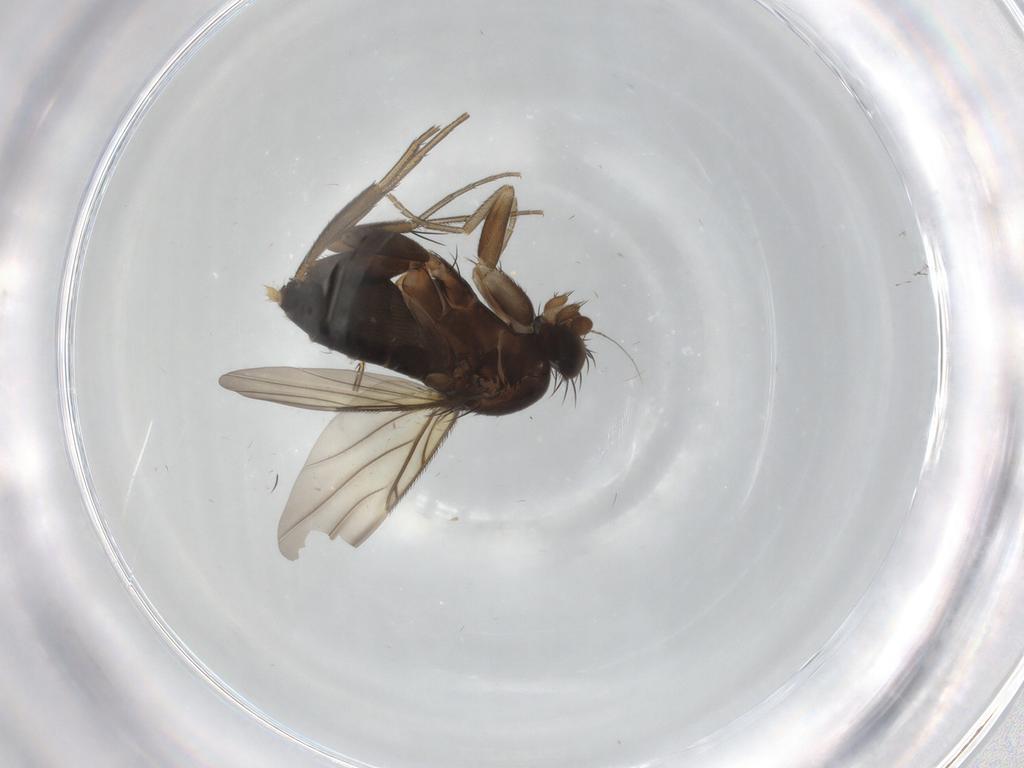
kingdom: Animalia
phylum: Arthropoda
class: Insecta
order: Diptera
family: Phoridae
